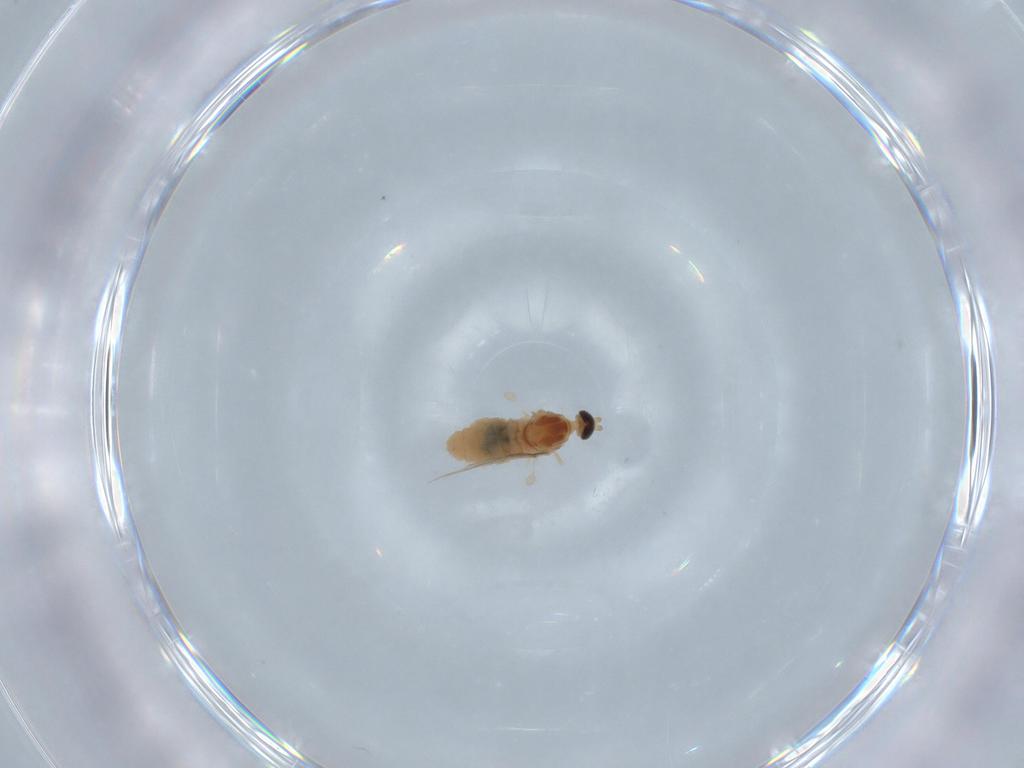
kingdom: Animalia
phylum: Arthropoda
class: Insecta
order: Diptera
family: Cecidomyiidae
